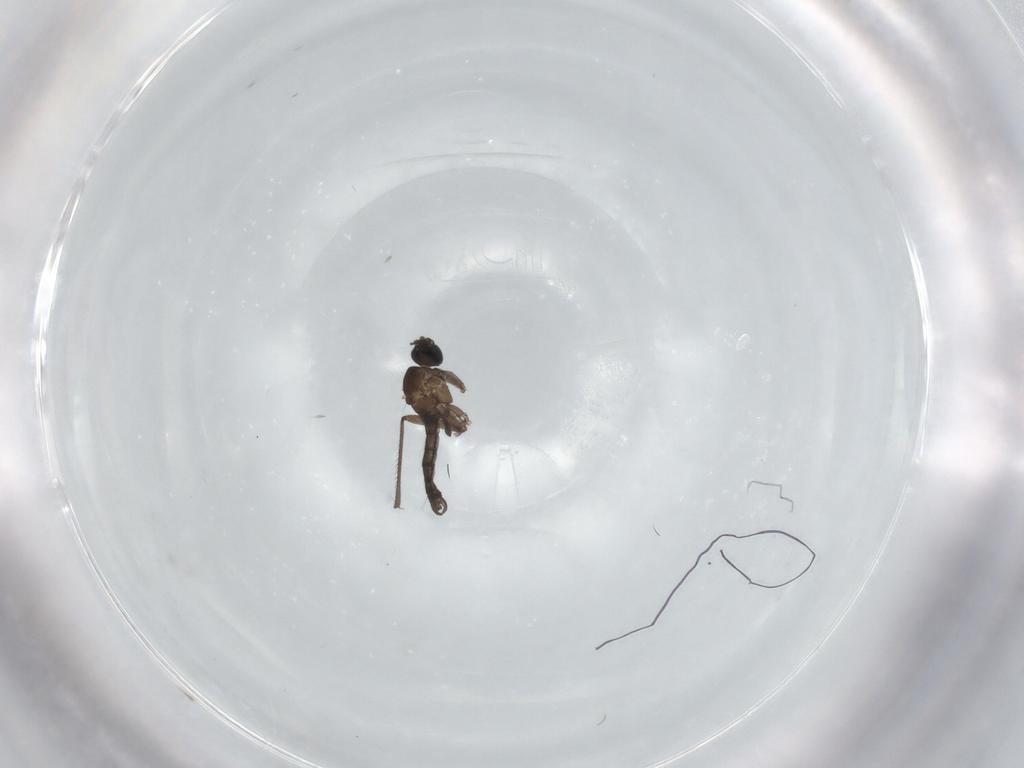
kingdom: Animalia
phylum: Arthropoda
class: Insecta
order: Diptera
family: Sciaridae
